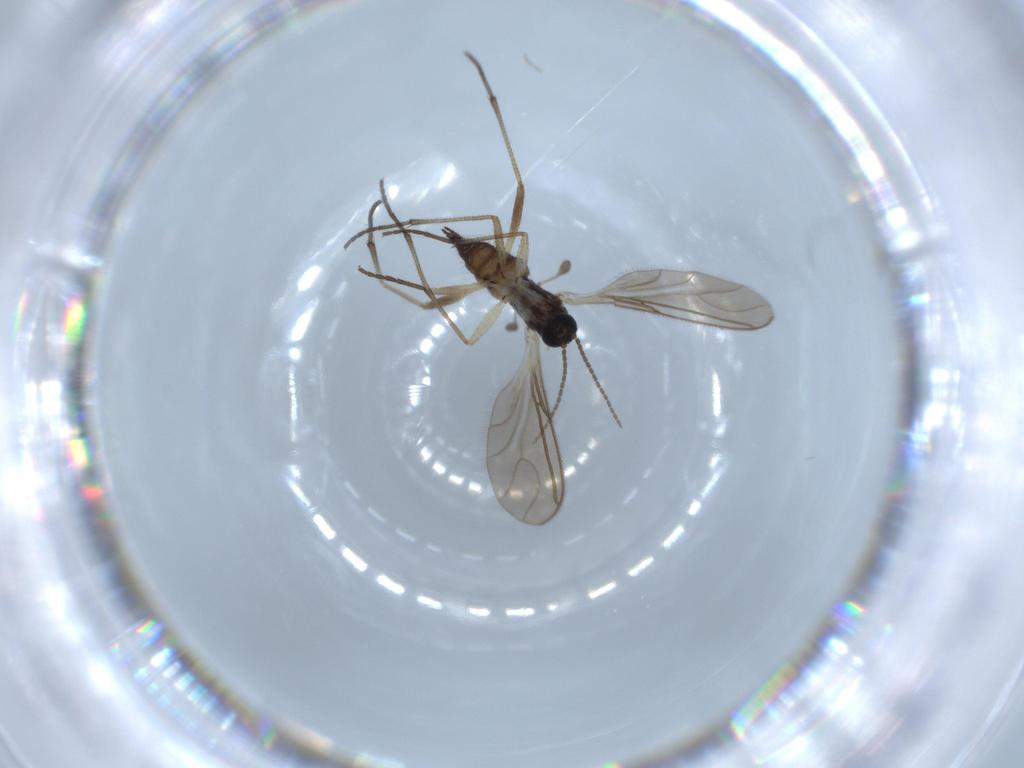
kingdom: Animalia
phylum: Arthropoda
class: Insecta
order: Diptera
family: Sciaridae
